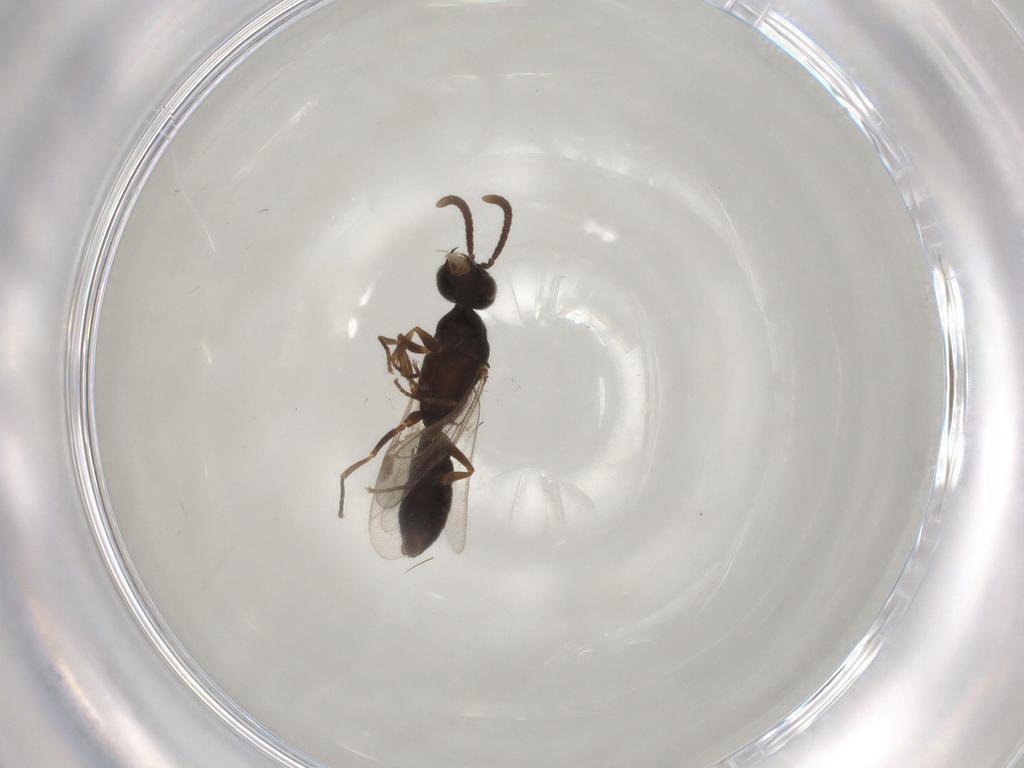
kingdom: Animalia
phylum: Arthropoda
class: Insecta
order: Hymenoptera
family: Formicidae
